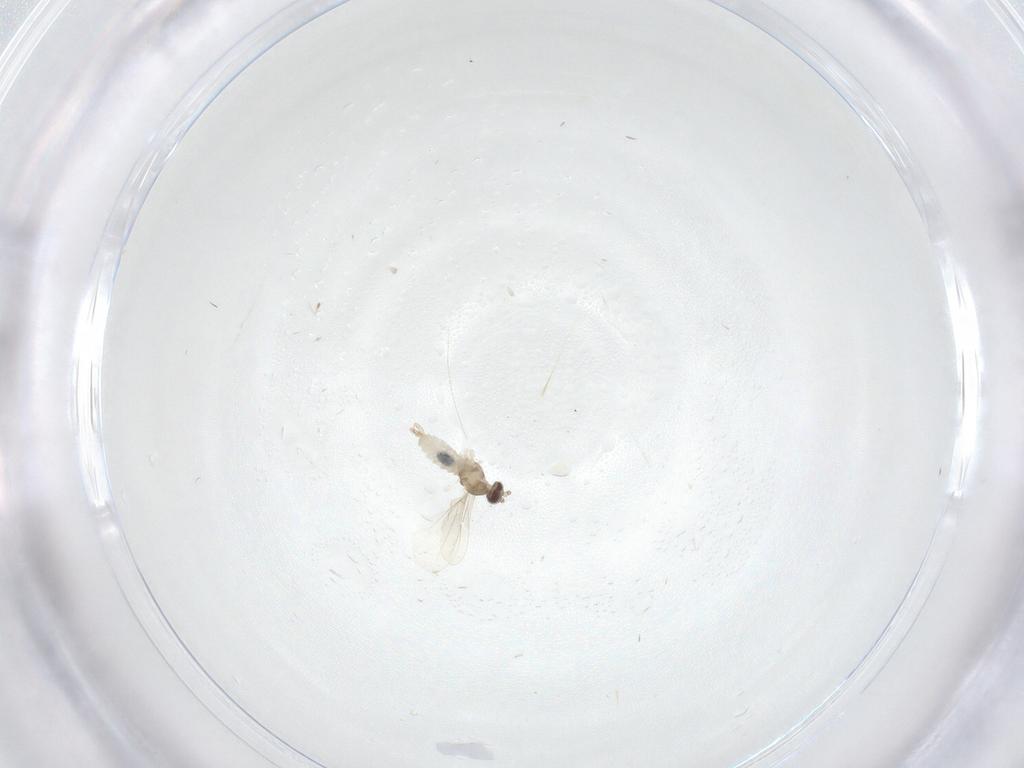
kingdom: Animalia
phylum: Arthropoda
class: Insecta
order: Diptera
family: Cecidomyiidae
